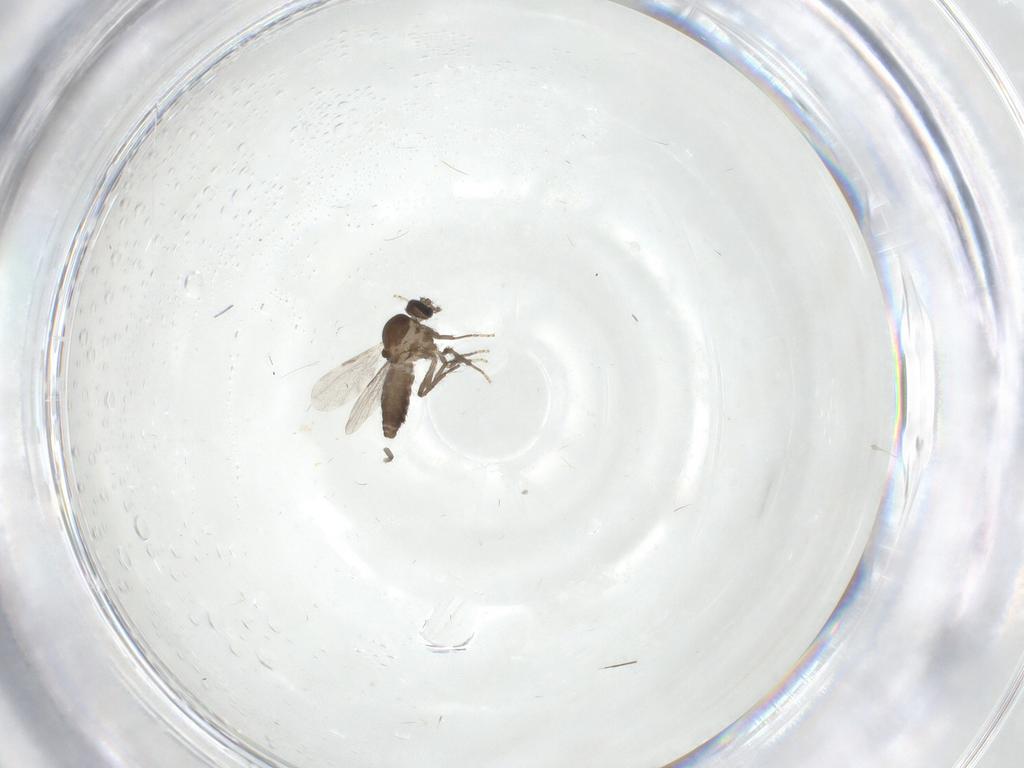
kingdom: Animalia
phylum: Arthropoda
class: Insecta
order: Diptera
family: Ceratopogonidae
